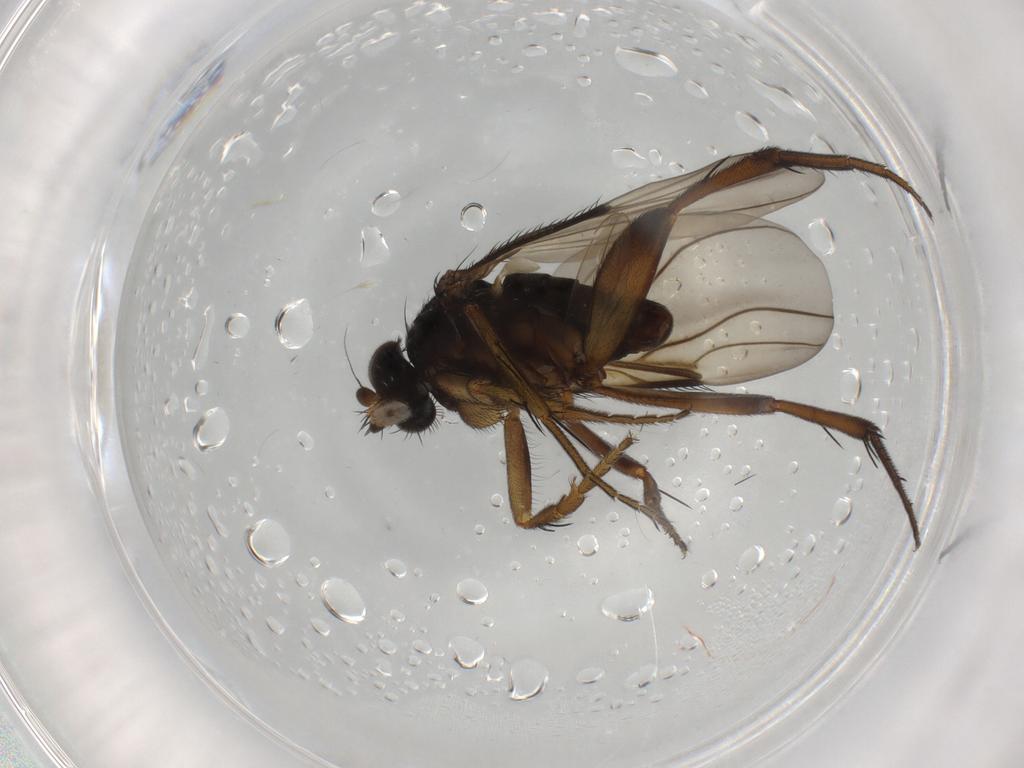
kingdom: Animalia
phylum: Arthropoda
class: Insecta
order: Diptera
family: Phoridae
